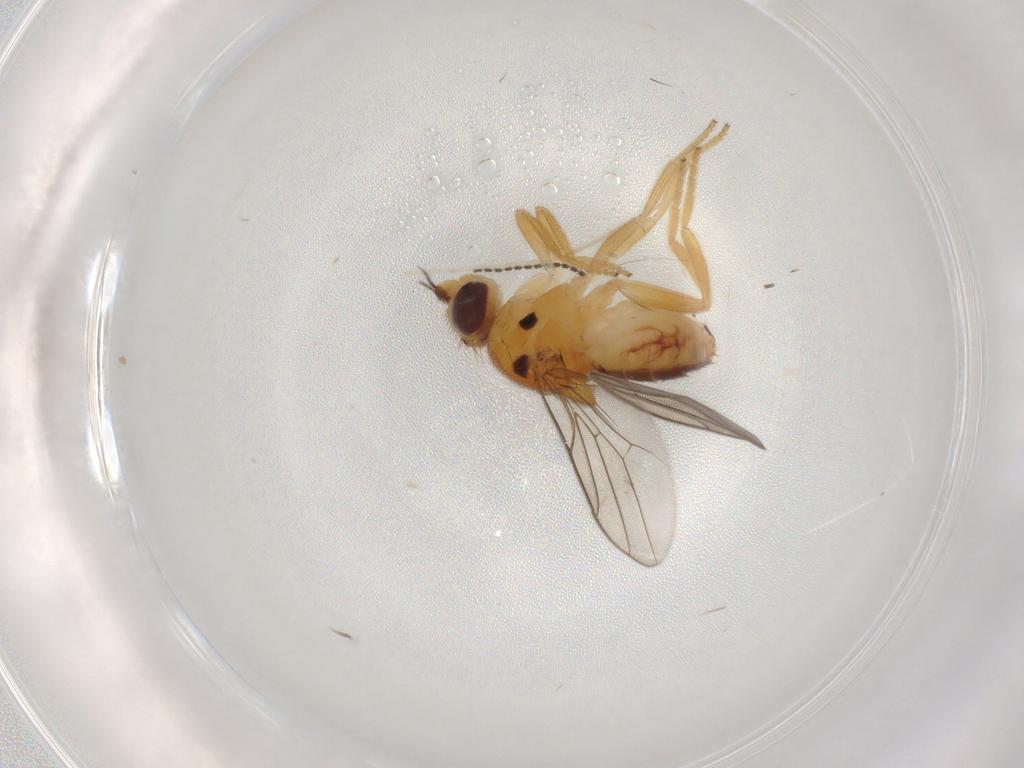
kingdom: Animalia
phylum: Arthropoda
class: Insecta
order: Diptera
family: Chloropidae
